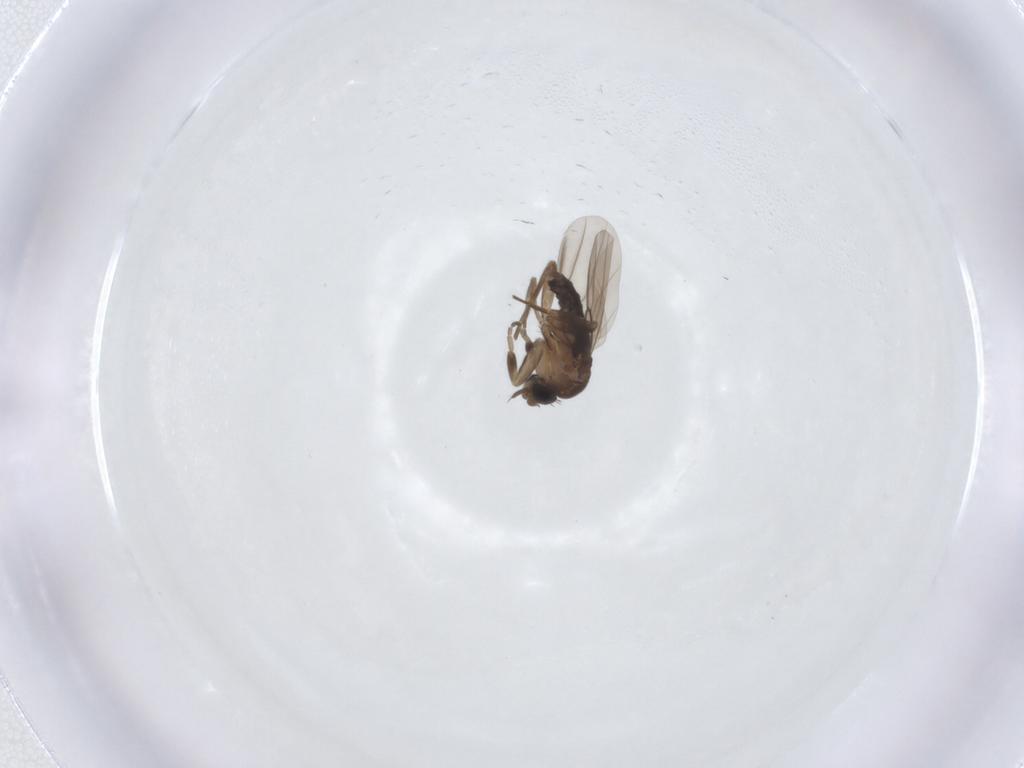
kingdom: Animalia
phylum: Arthropoda
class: Insecta
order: Diptera
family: Phoridae
